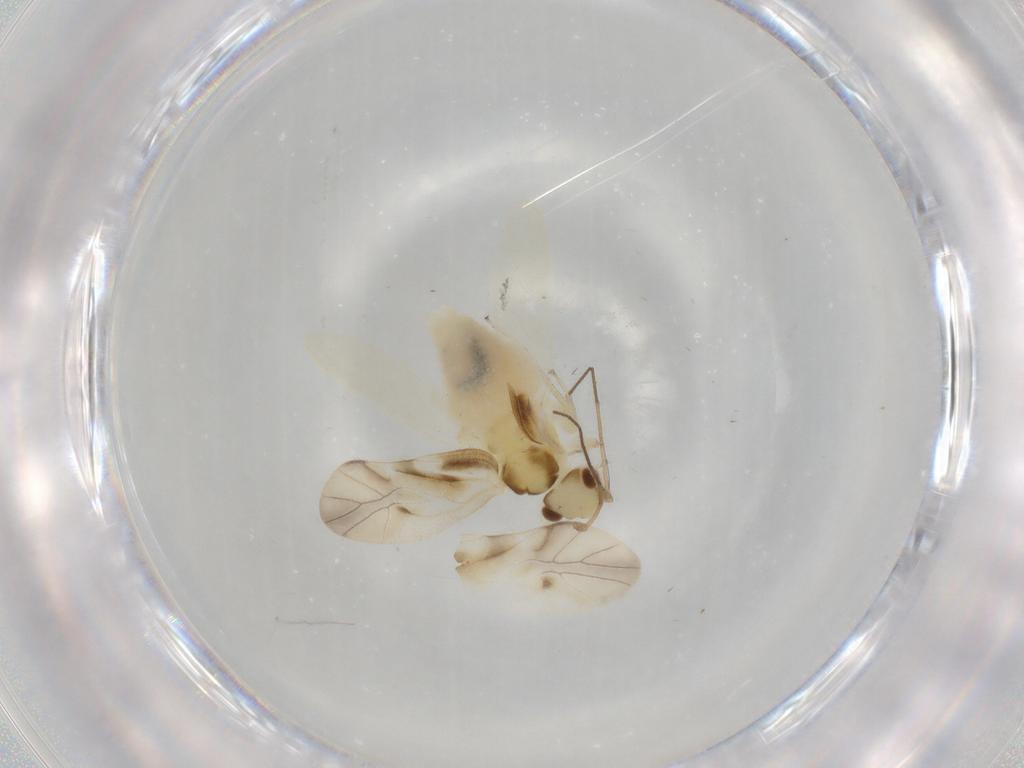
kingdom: Animalia
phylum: Arthropoda
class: Insecta
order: Psocodea
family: Caeciliusidae
